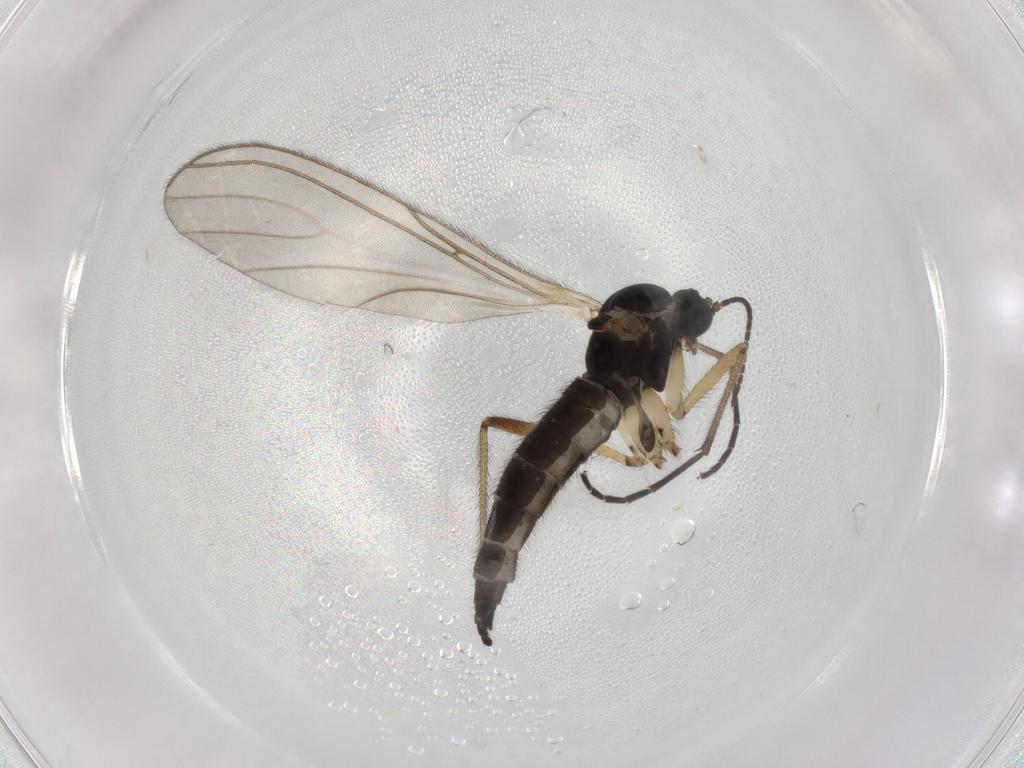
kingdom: Animalia
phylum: Arthropoda
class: Insecta
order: Diptera
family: Sciaridae
